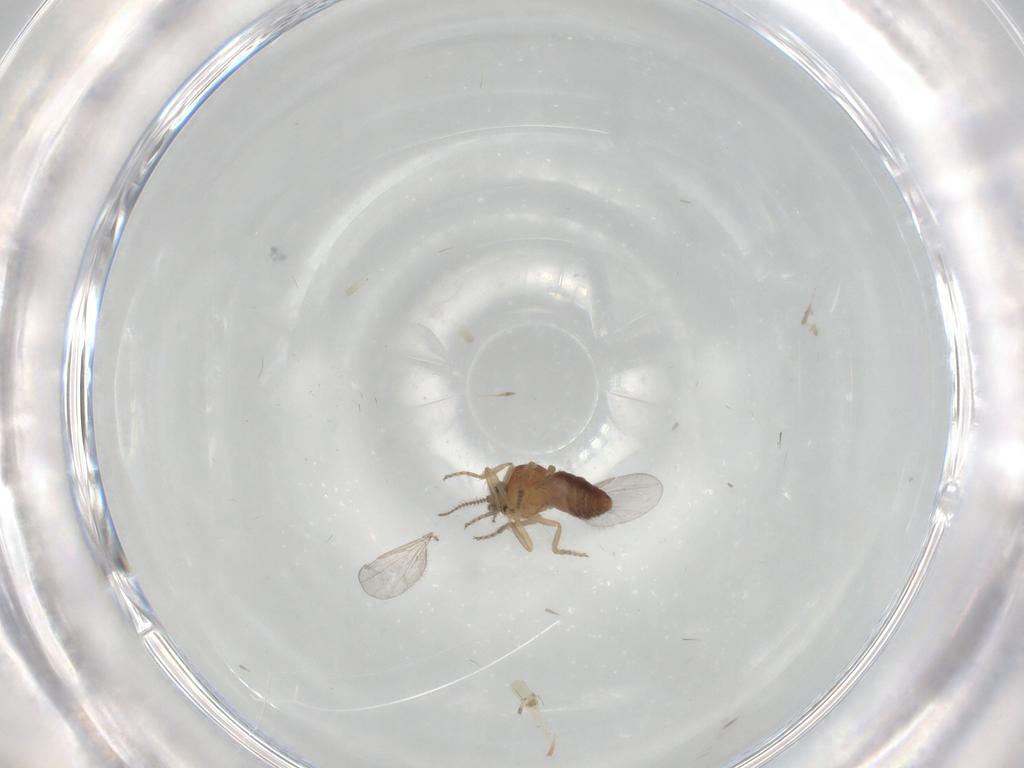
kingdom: Animalia
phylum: Arthropoda
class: Insecta
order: Diptera
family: Ceratopogonidae
